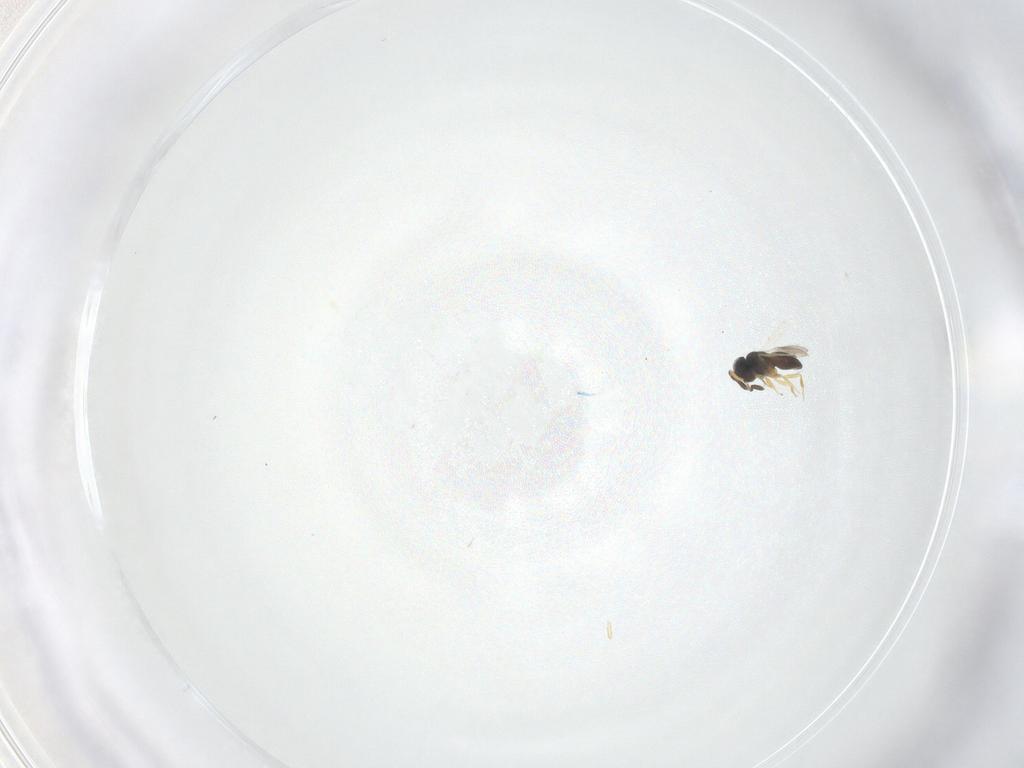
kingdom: Animalia
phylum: Arthropoda
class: Insecta
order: Hymenoptera
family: Scelionidae
